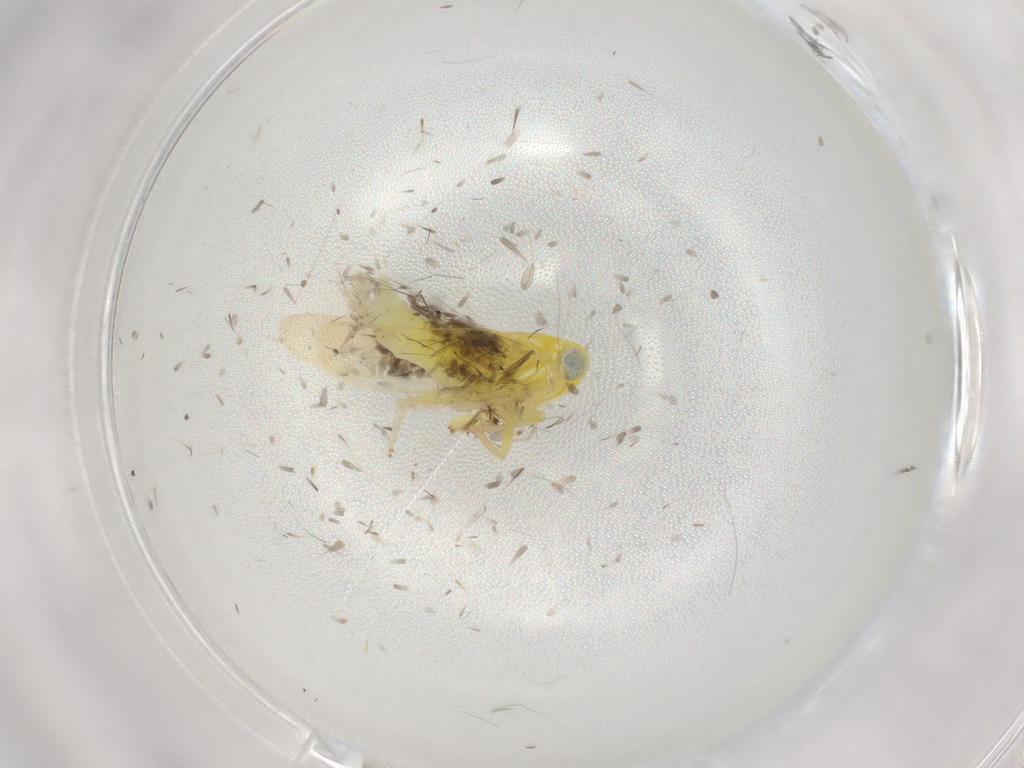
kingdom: Animalia
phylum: Arthropoda
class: Insecta
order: Hemiptera
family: Cicadellidae
